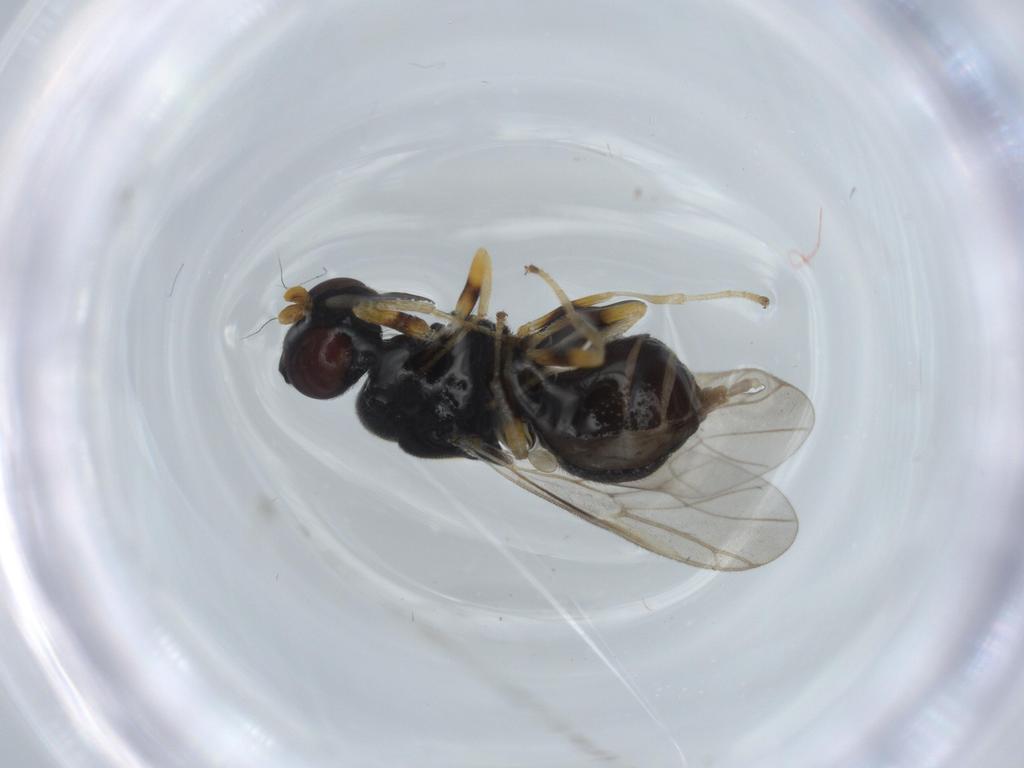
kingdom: Animalia
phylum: Arthropoda
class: Insecta
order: Diptera
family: Stratiomyidae
